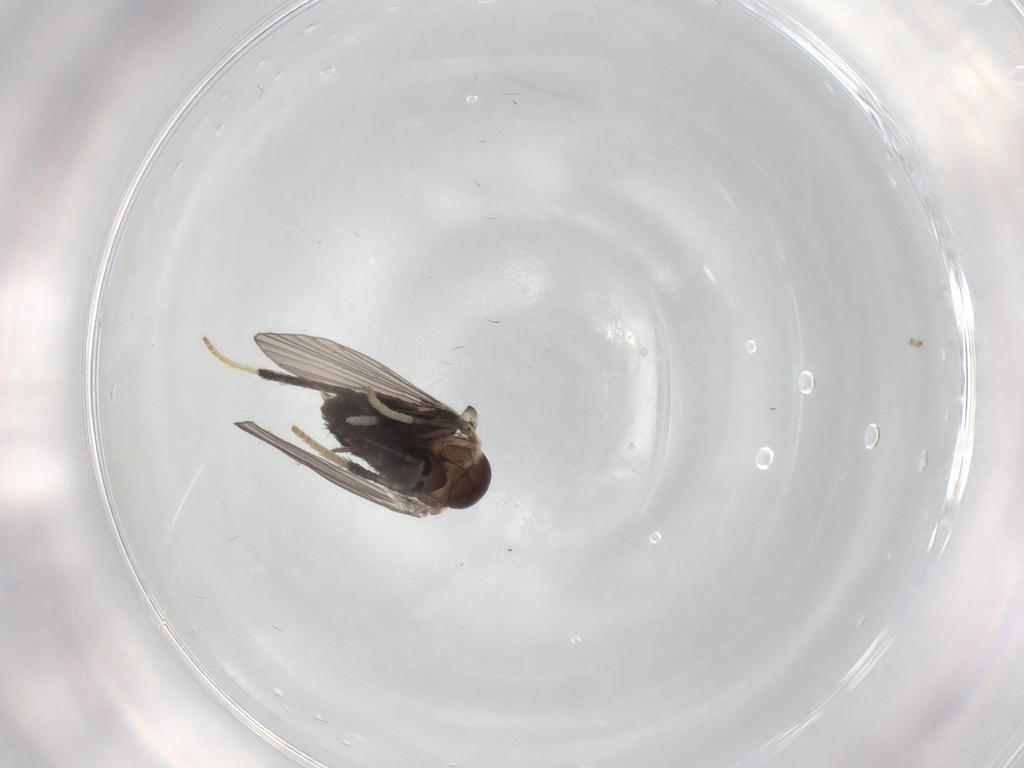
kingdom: Animalia
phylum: Arthropoda
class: Insecta
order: Diptera
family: Psychodidae
